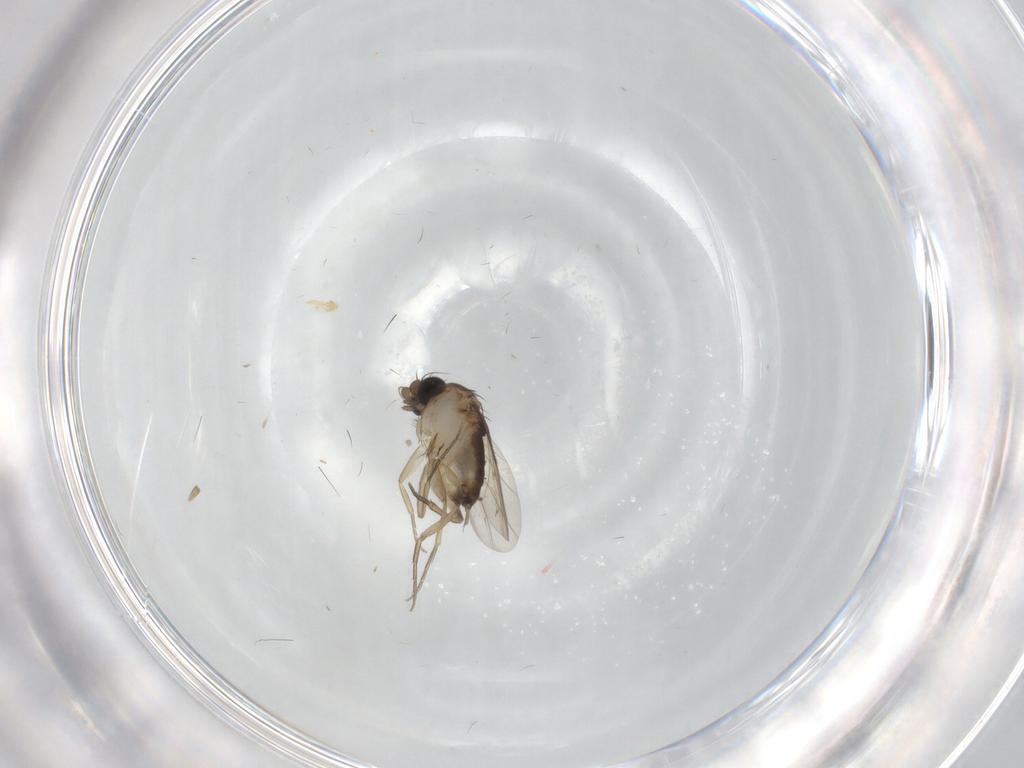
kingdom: Animalia
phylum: Arthropoda
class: Insecta
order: Diptera
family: Phoridae
